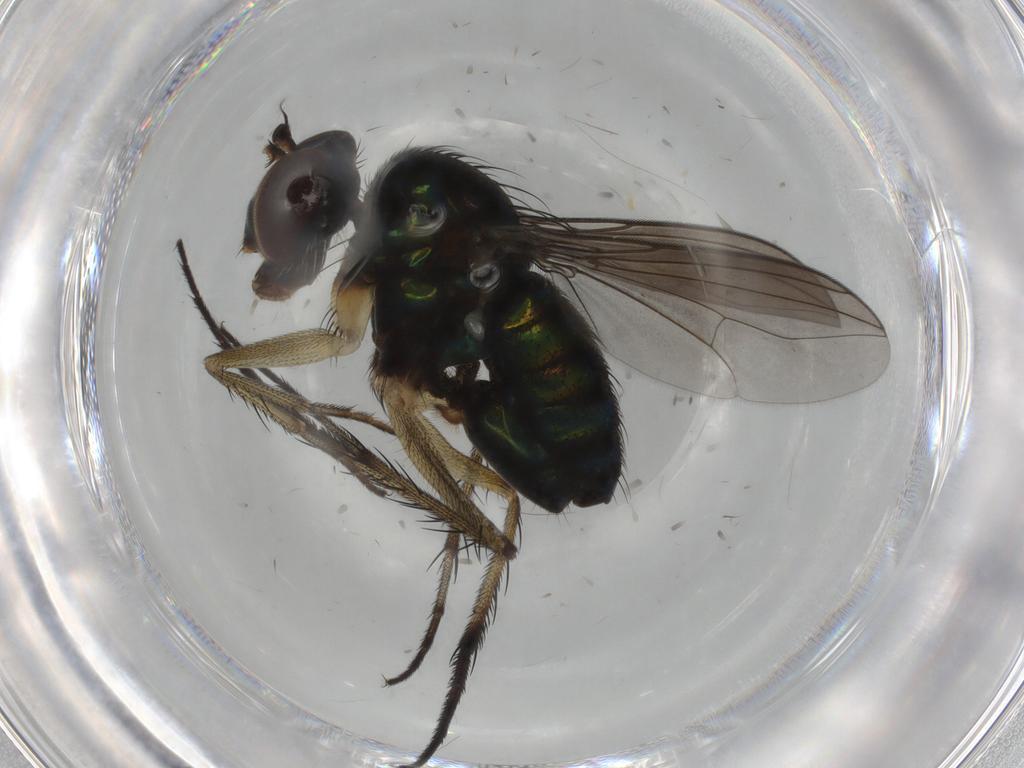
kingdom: Animalia
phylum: Arthropoda
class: Insecta
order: Diptera
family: Dolichopodidae
